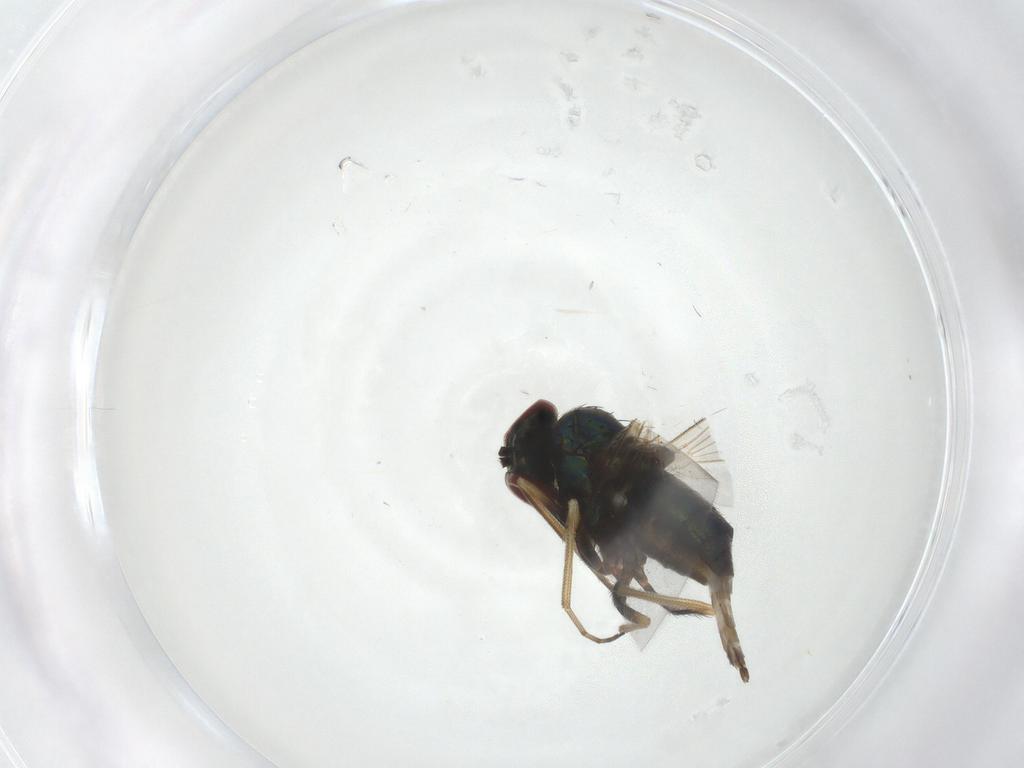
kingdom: Animalia
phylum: Arthropoda
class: Insecta
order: Diptera
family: Dolichopodidae
